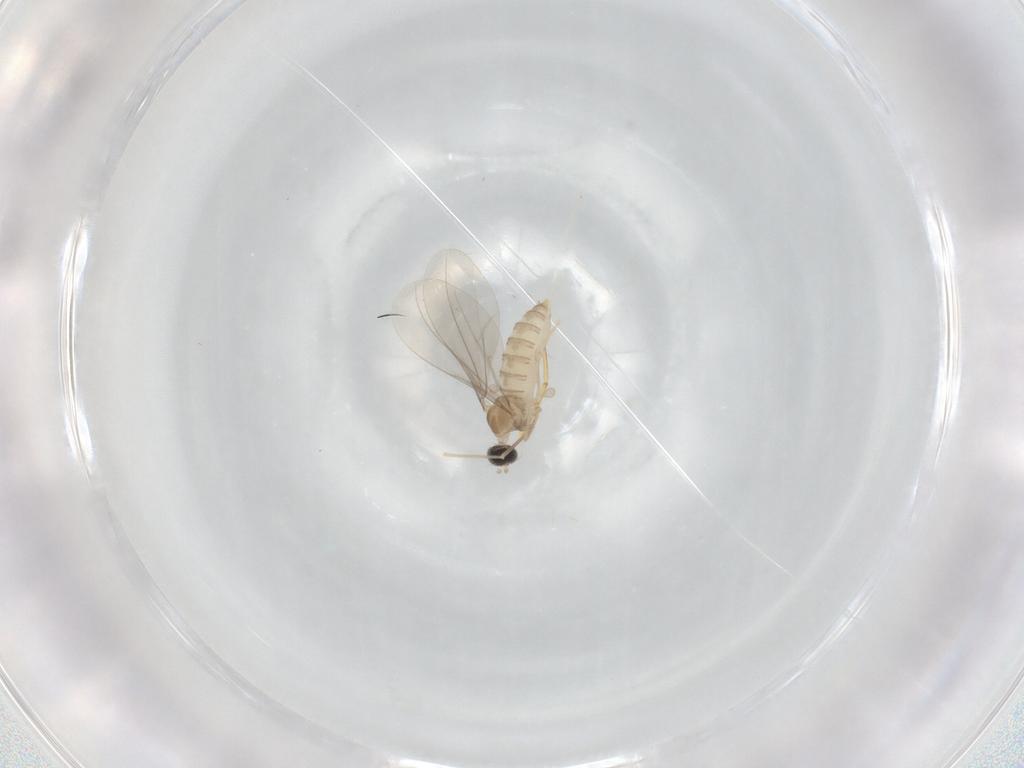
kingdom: Animalia
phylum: Arthropoda
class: Insecta
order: Diptera
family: Cecidomyiidae
